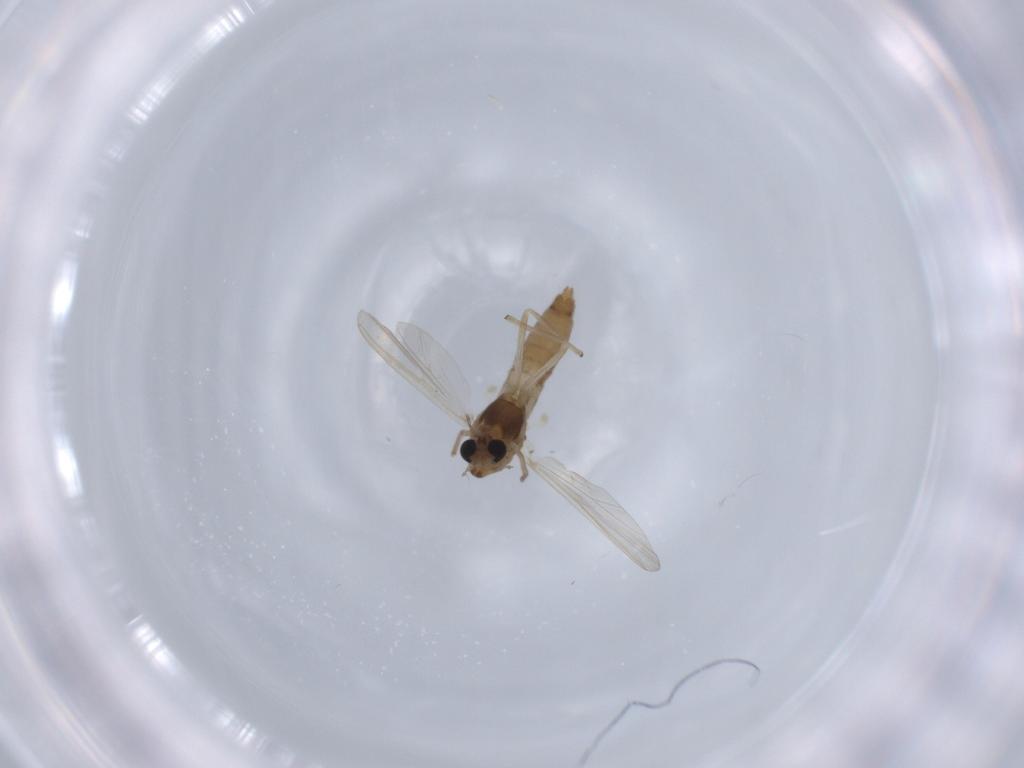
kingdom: Animalia
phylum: Arthropoda
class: Insecta
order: Diptera
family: Chironomidae
